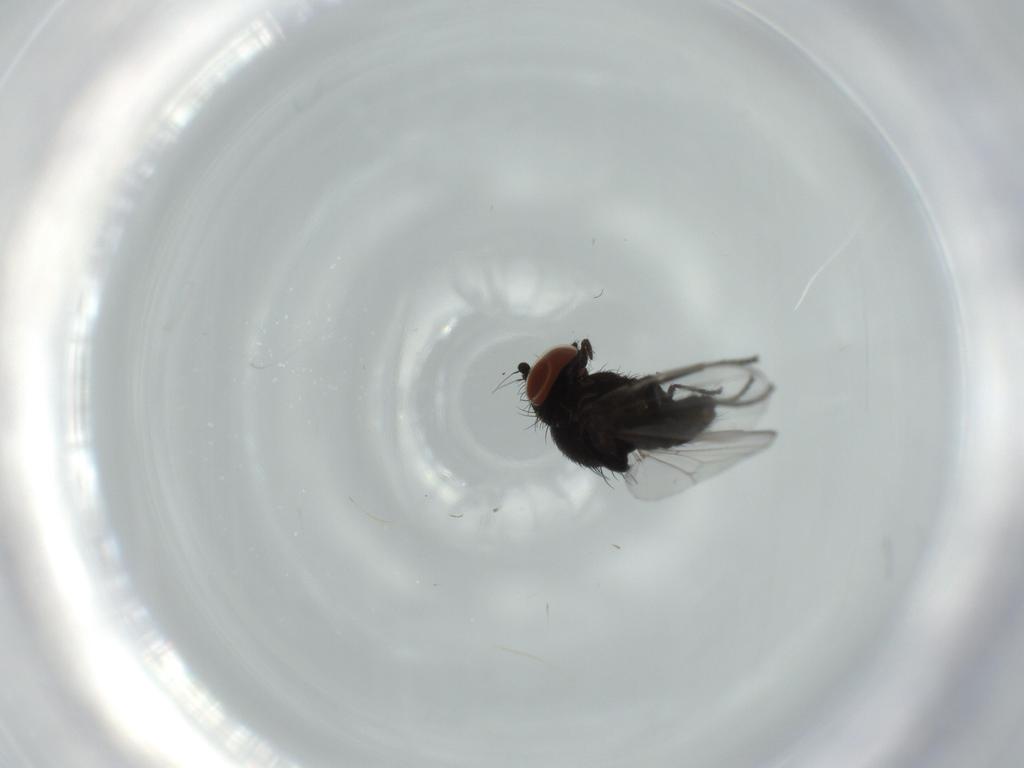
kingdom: Animalia
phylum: Arthropoda
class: Insecta
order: Diptera
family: Milichiidae
